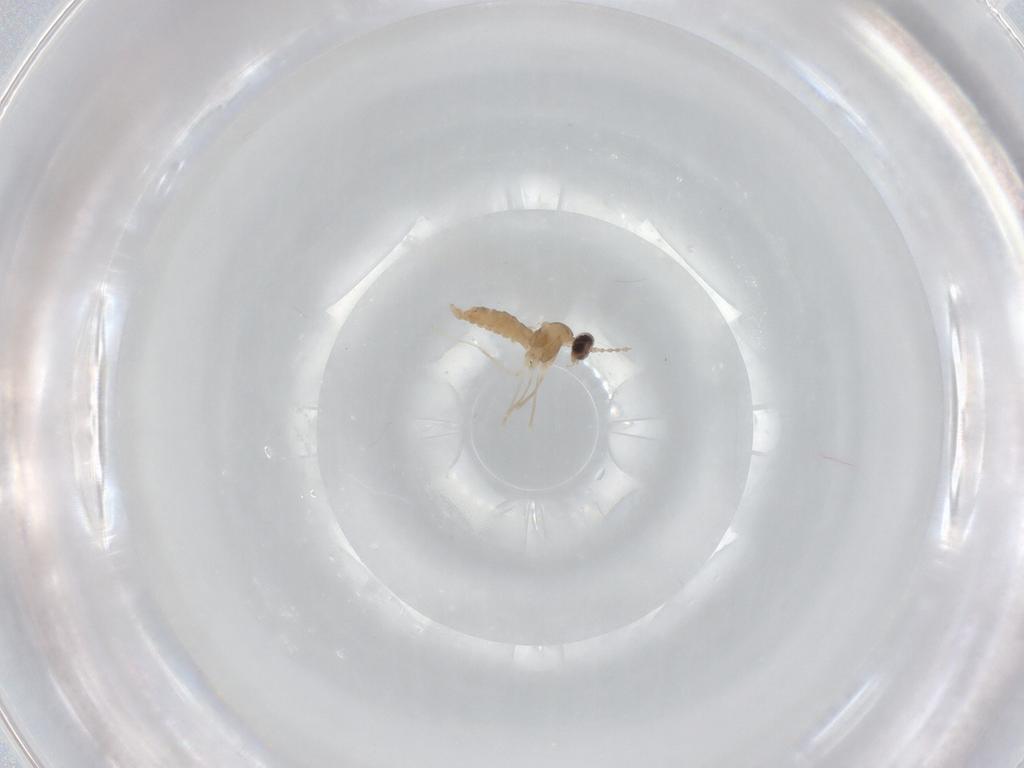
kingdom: Animalia
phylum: Arthropoda
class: Insecta
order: Diptera
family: Cecidomyiidae
